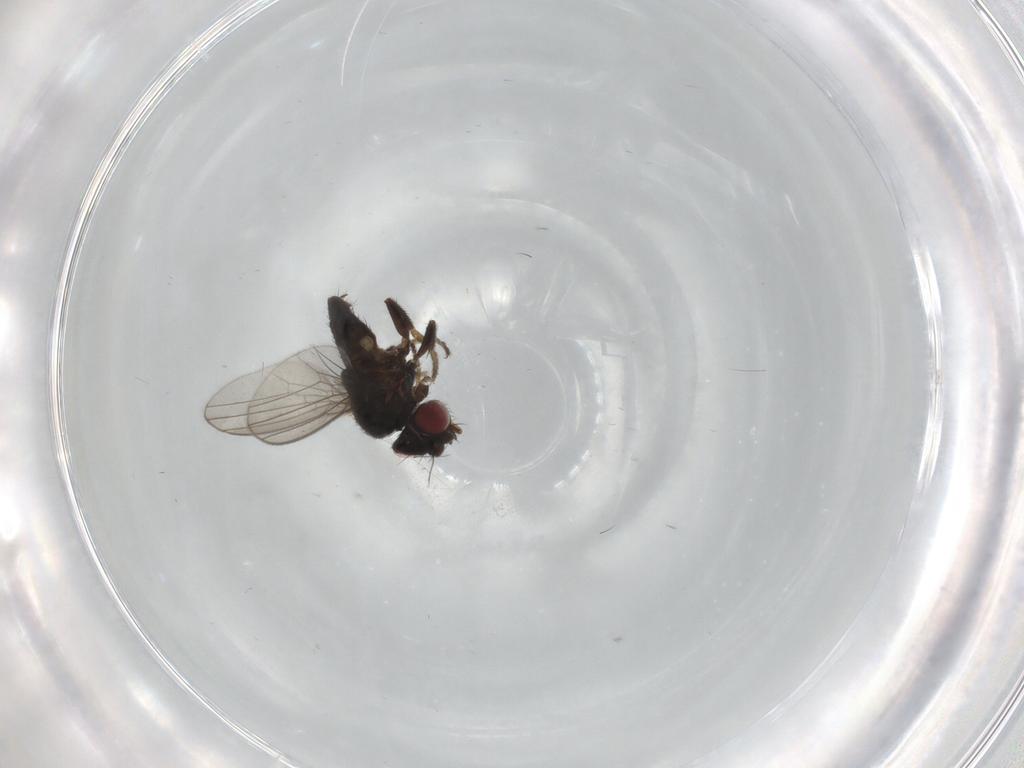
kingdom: Animalia
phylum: Arthropoda
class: Insecta
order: Diptera
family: Milichiidae
